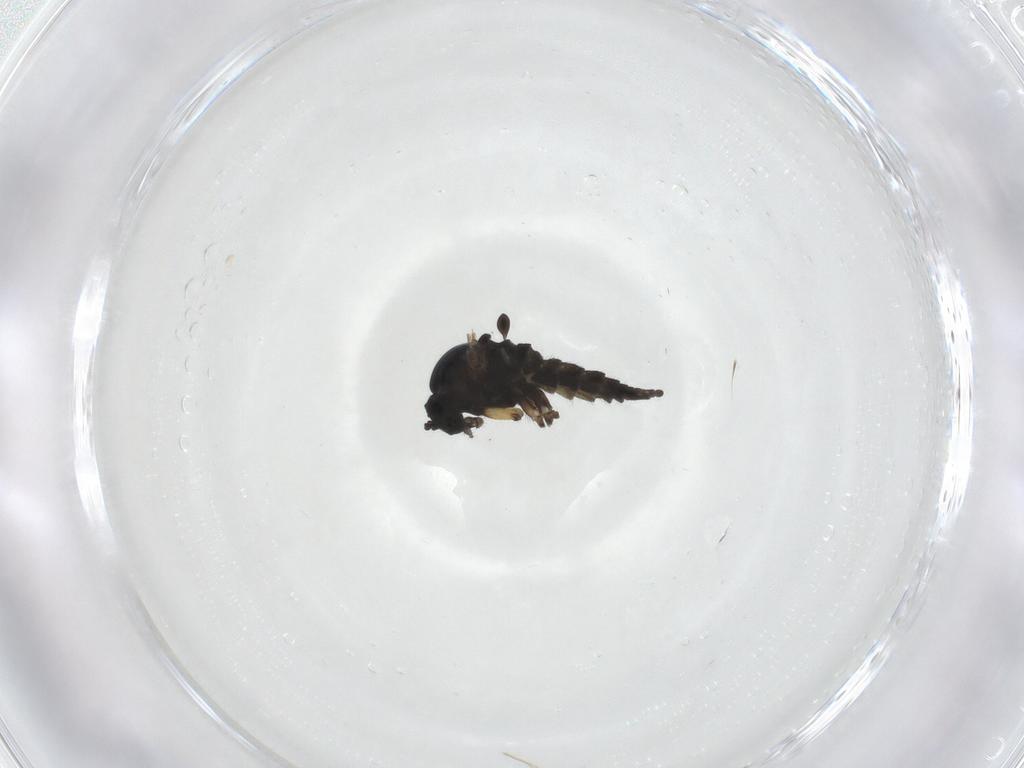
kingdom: Animalia
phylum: Arthropoda
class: Insecta
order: Diptera
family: Sciaridae
